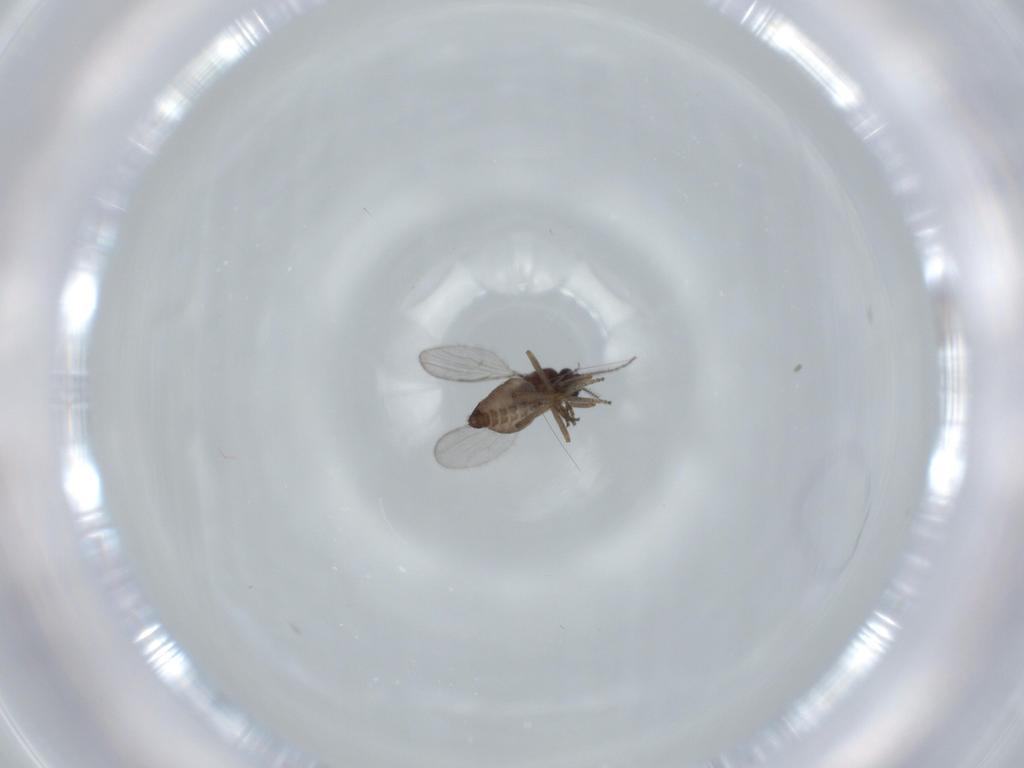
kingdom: Animalia
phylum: Arthropoda
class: Insecta
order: Diptera
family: Ceratopogonidae
